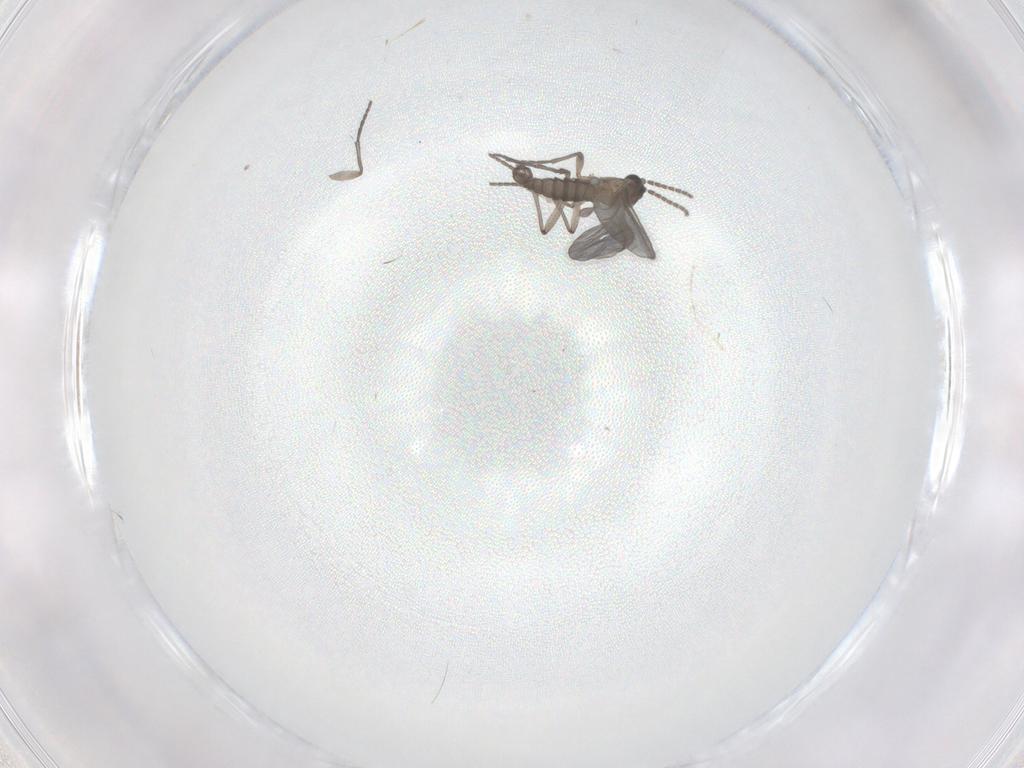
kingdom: Animalia
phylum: Arthropoda
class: Insecta
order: Diptera
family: Sciaridae
